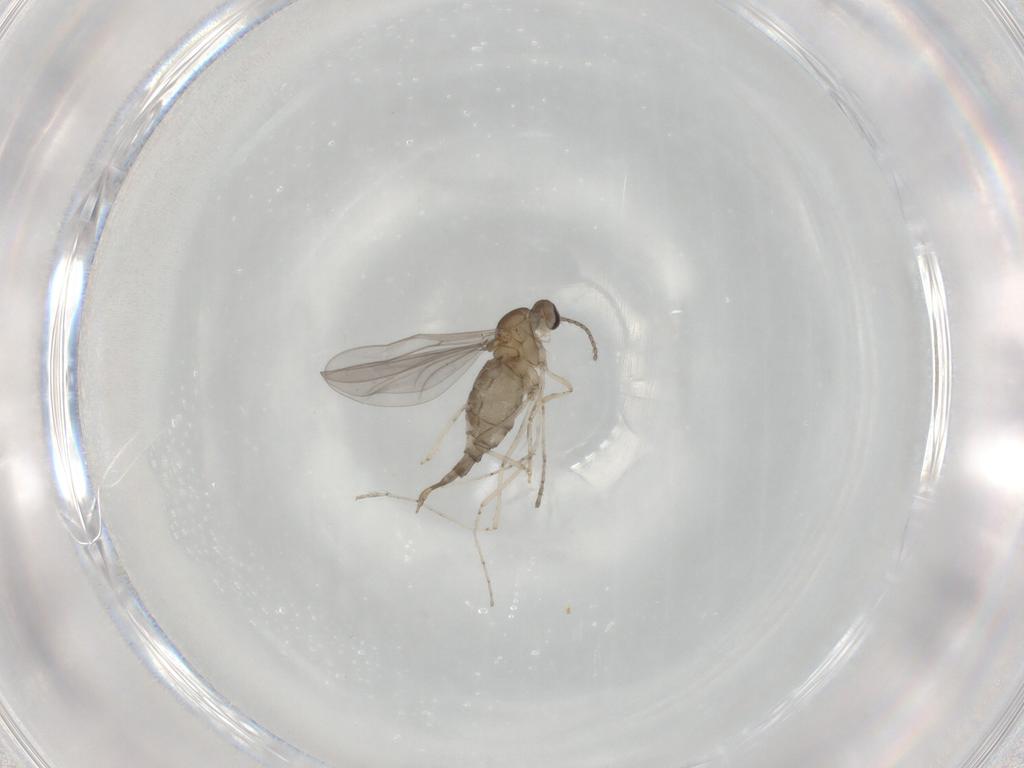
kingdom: Animalia
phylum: Arthropoda
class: Insecta
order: Diptera
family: Cecidomyiidae
